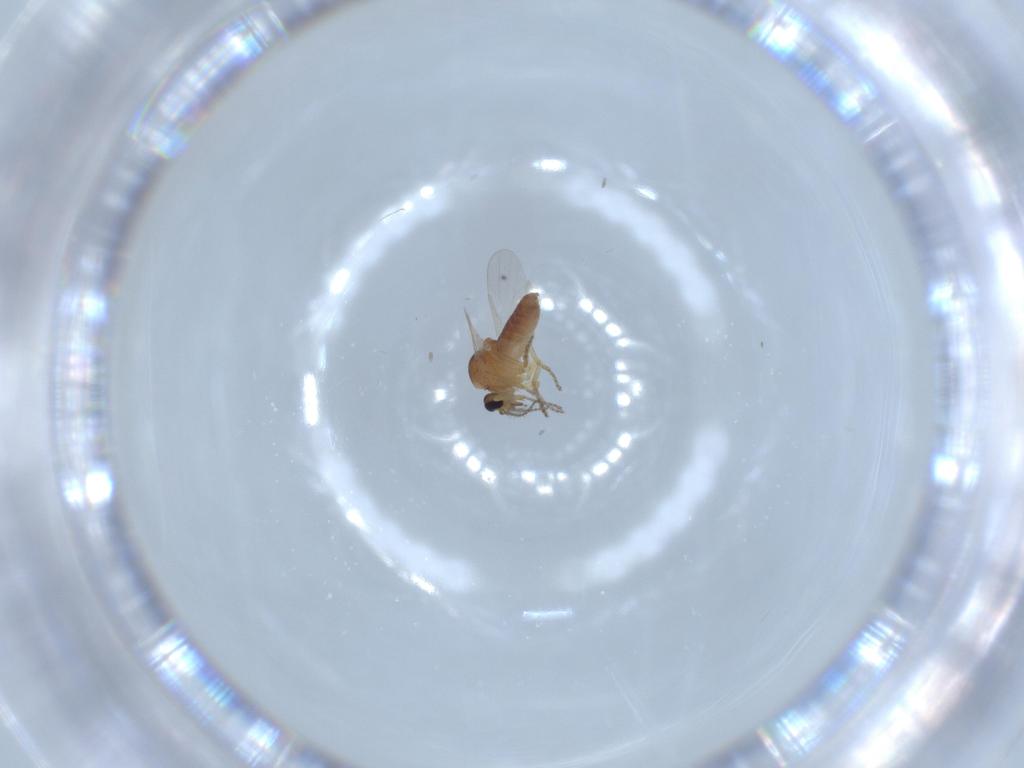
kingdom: Animalia
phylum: Arthropoda
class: Insecta
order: Diptera
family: Ceratopogonidae
